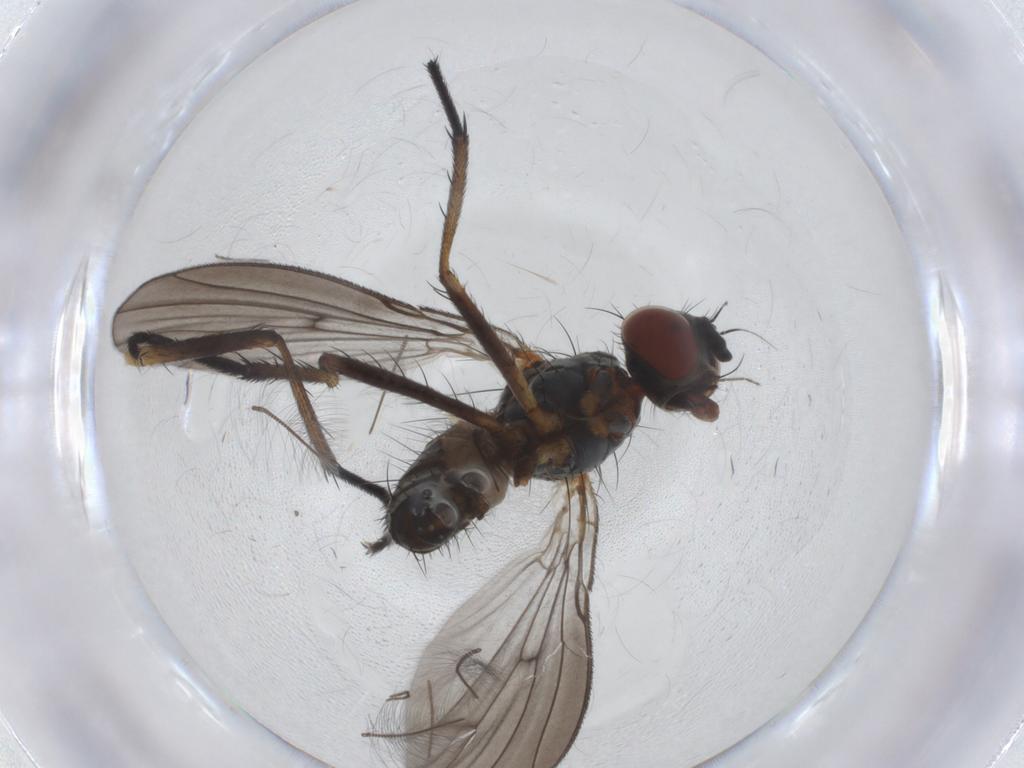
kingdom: Animalia
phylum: Arthropoda
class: Insecta
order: Diptera
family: Anthomyiidae
